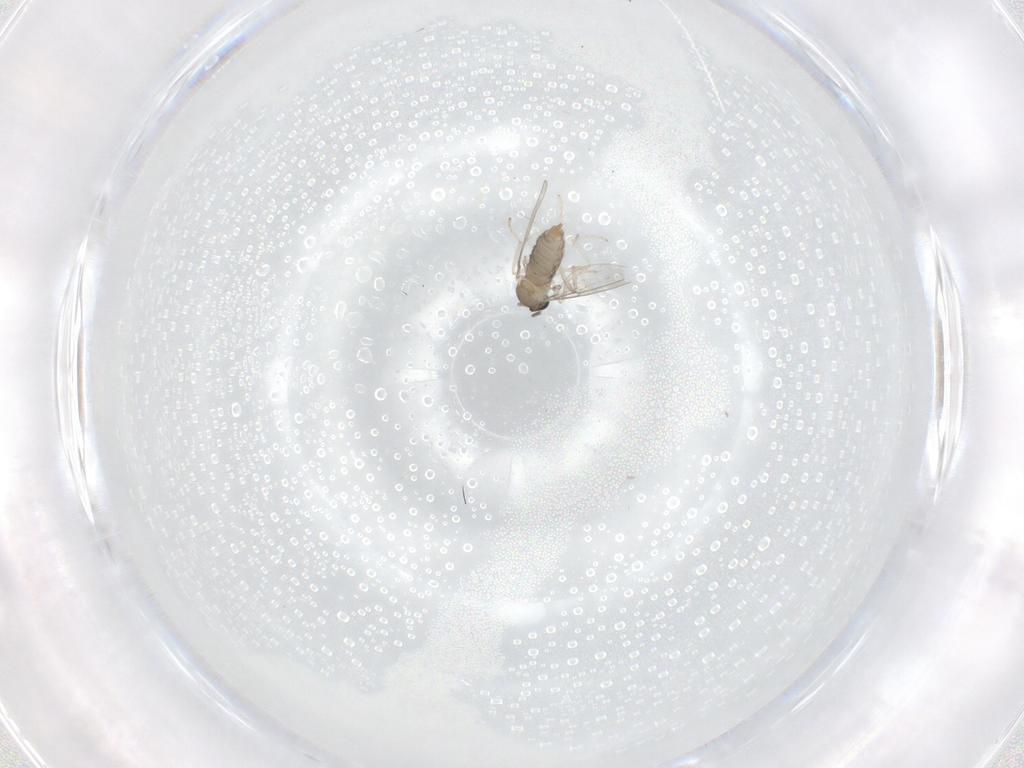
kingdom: Animalia
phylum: Arthropoda
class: Insecta
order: Diptera
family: Cecidomyiidae
